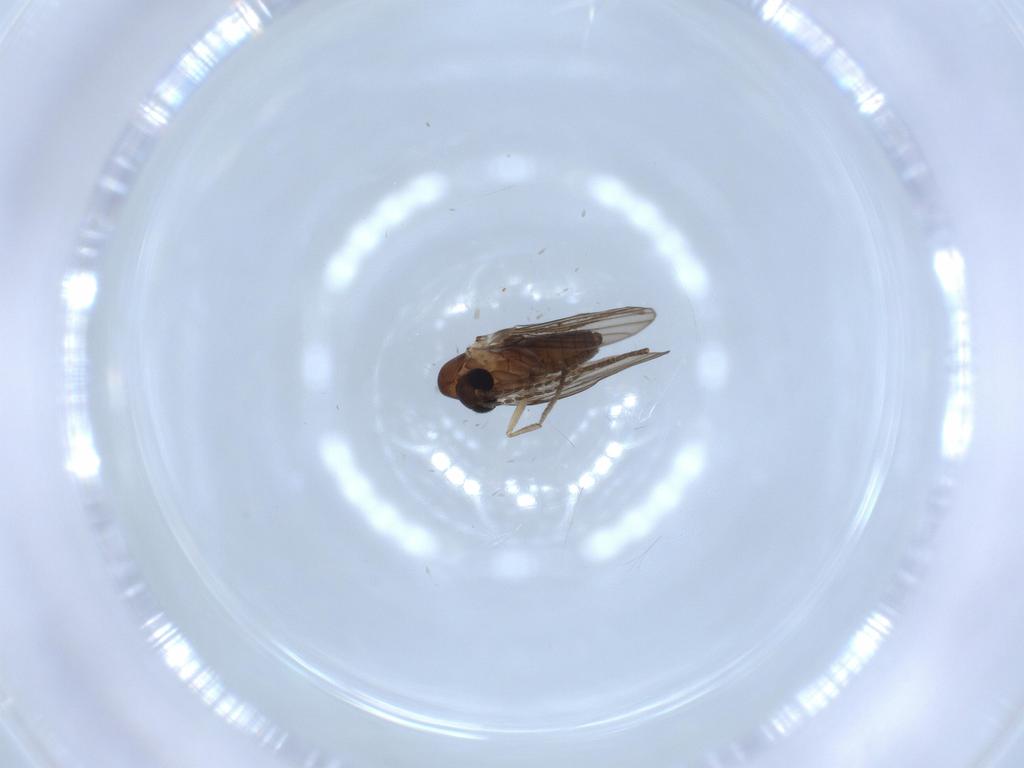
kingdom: Animalia
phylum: Arthropoda
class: Insecta
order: Diptera
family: Psychodidae
